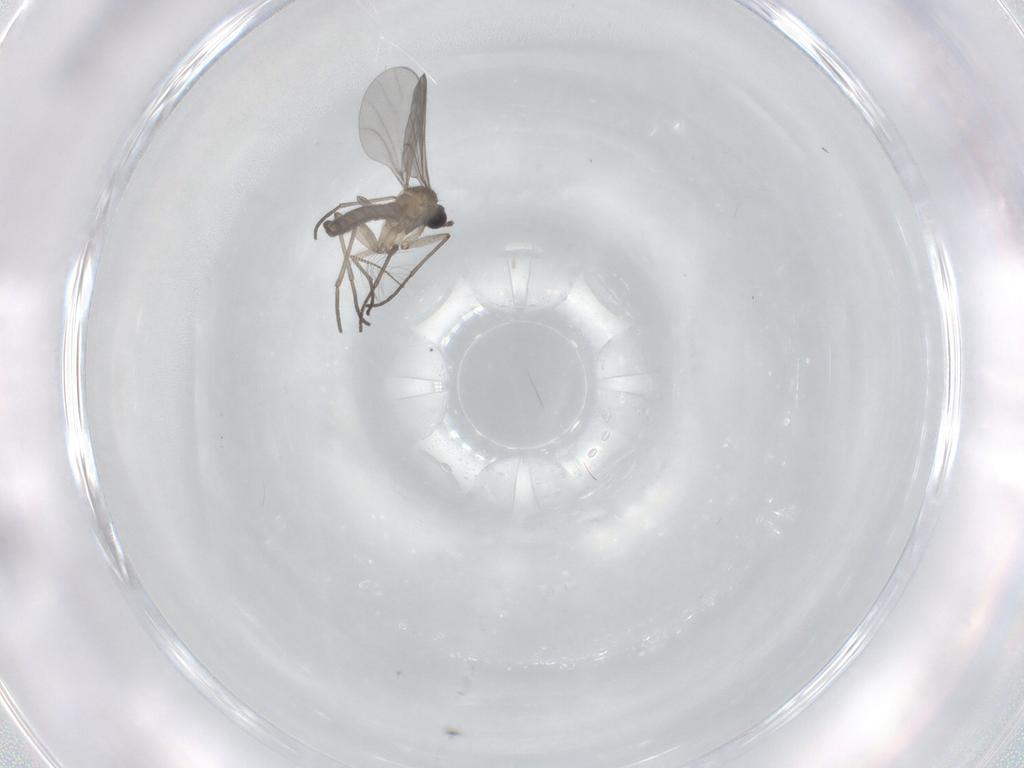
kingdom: Animalia
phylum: Arthropoda
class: Insecta
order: Diptera
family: Chironomidae
